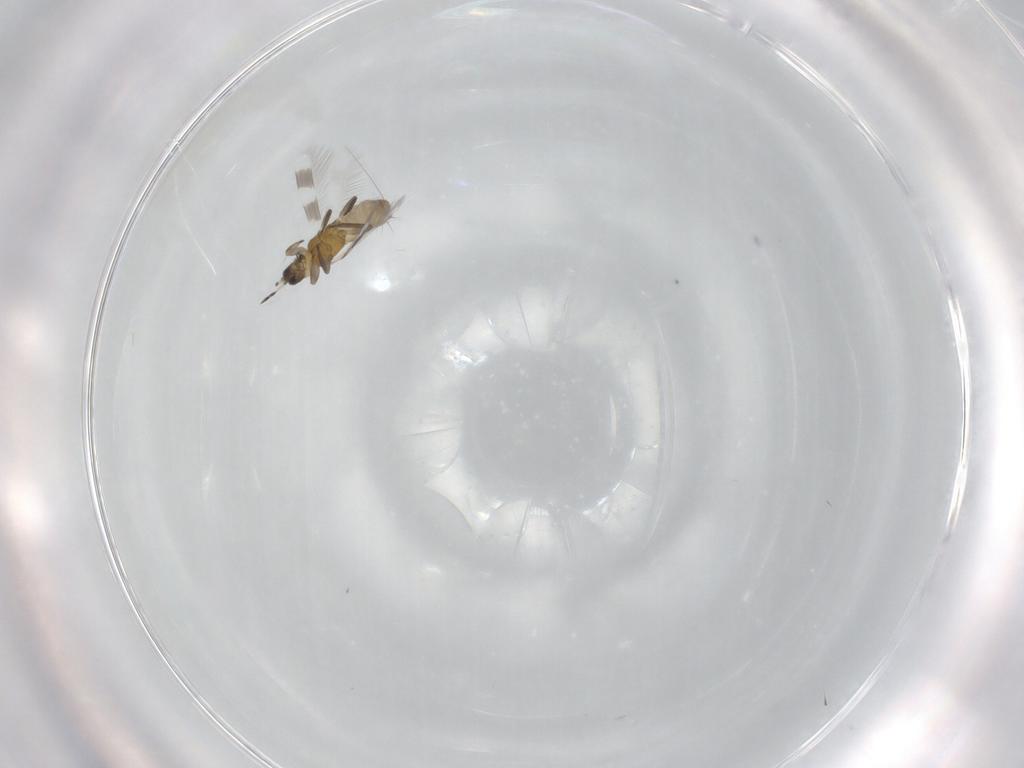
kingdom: Animalia
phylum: Arthropoda
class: Insecta
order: Thysanoptera
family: Aeolothripidae
